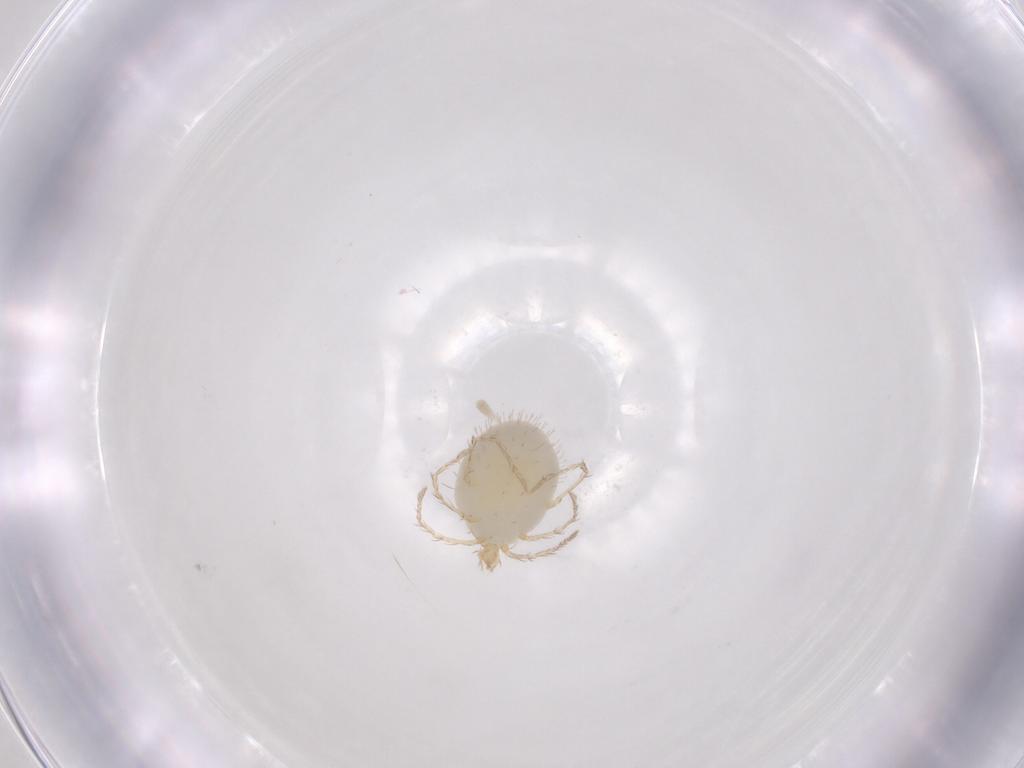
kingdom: Animalia
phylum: Arthropoda
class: Arachnida
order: Trombidiformes
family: Erythraeidae
